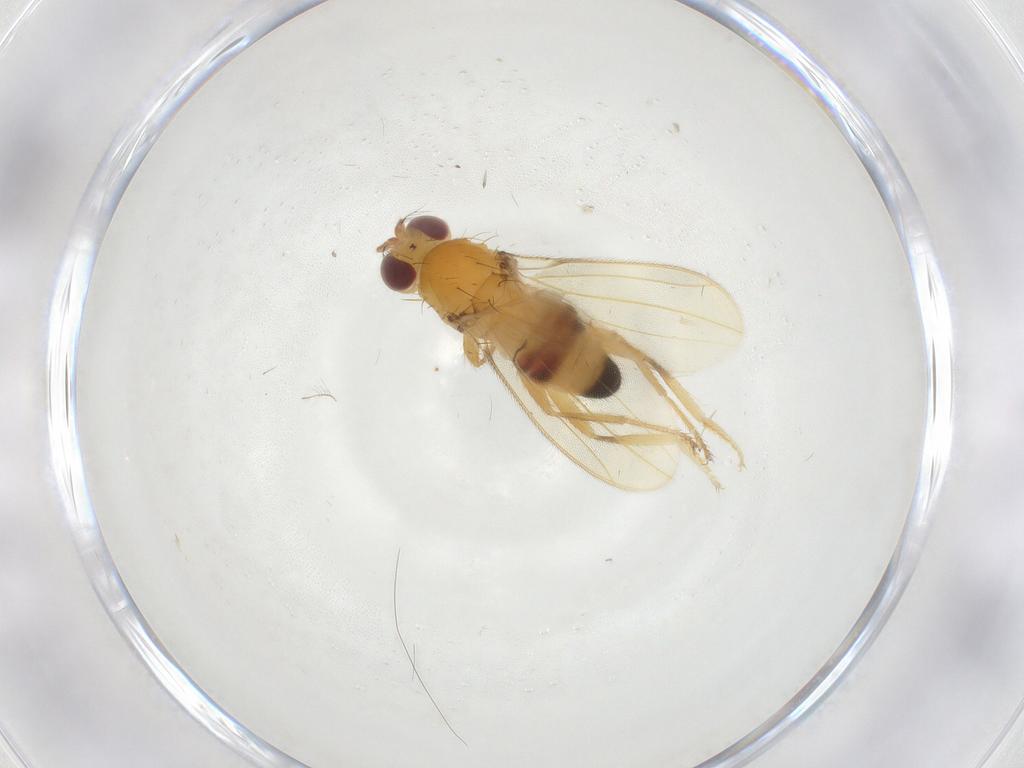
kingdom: Animalia
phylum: Arthropoda
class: Insecta
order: Diptera
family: Periscelididae
